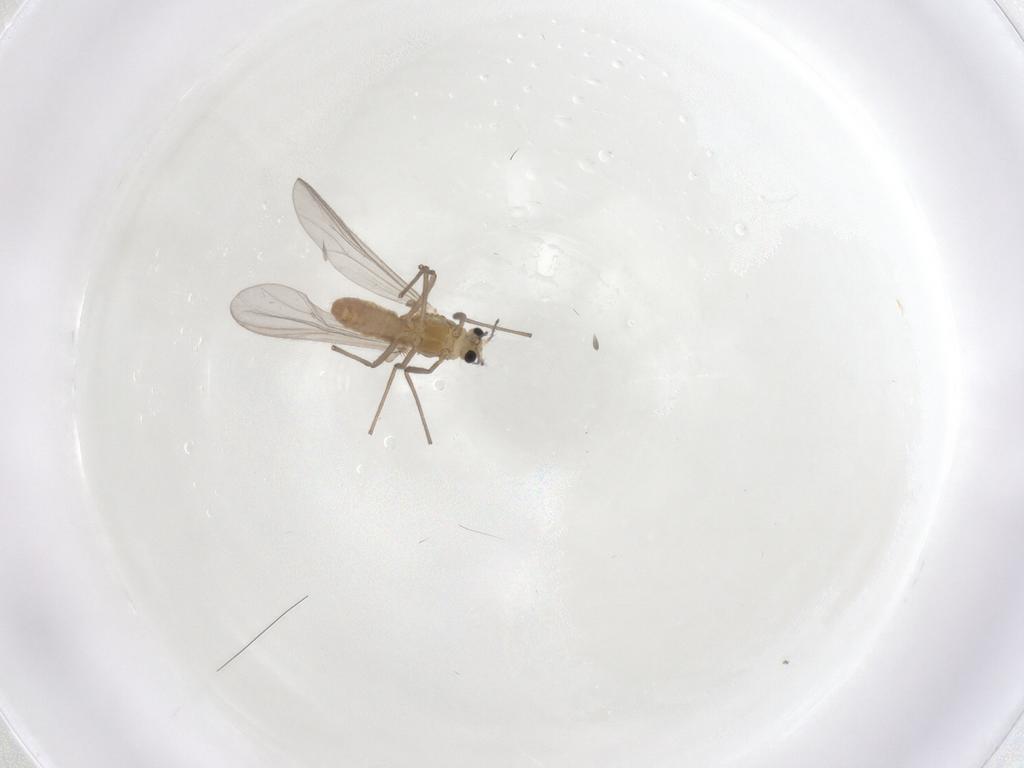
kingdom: Animalia
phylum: Arthropoda
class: Insecta
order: Diptera
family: Chironomidae
